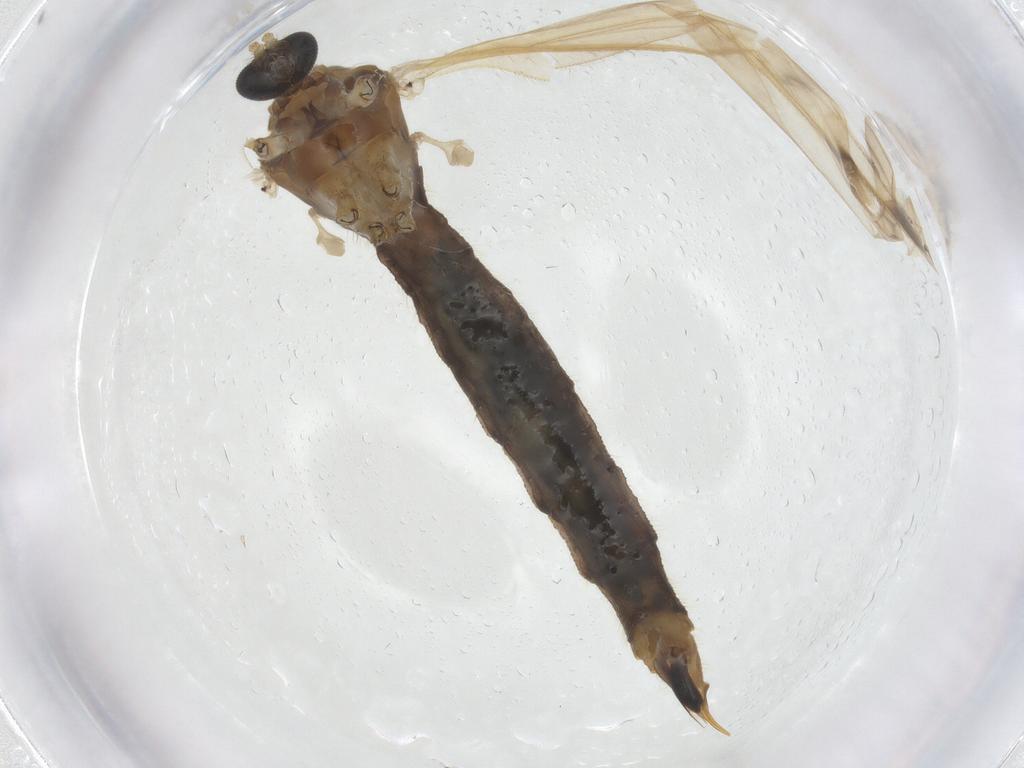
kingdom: Animalia
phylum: Arthropoda
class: Insecta
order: Diptera
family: Limoniidae
